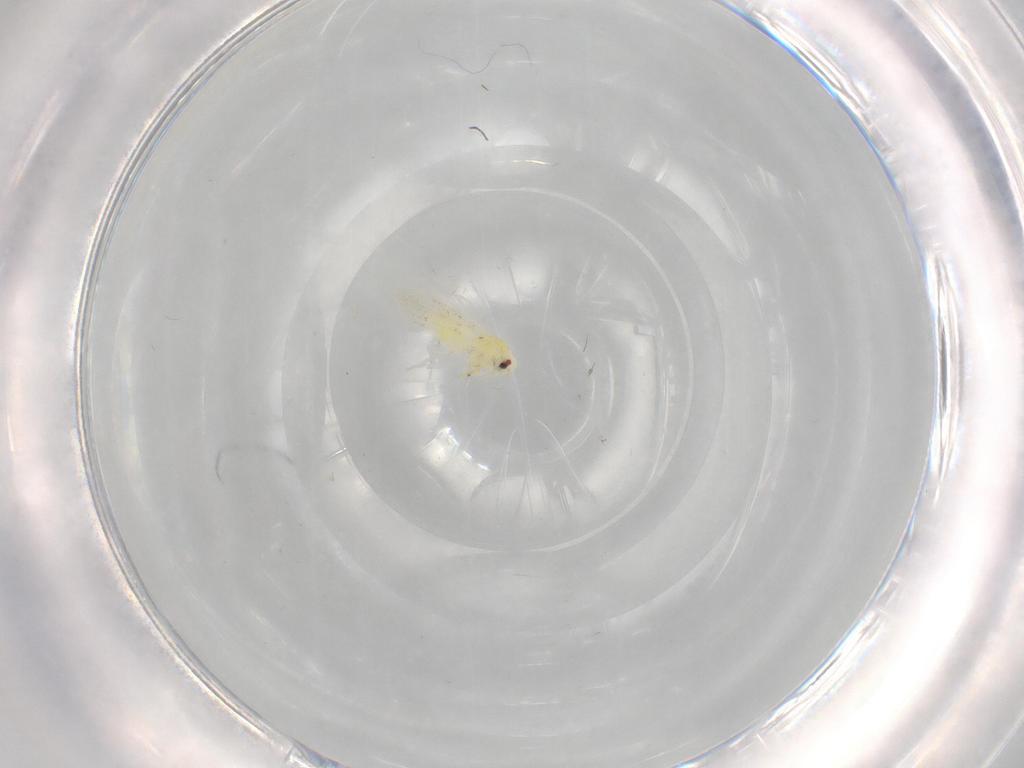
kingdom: Animalia
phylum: Arthropoda
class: Insecta
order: Hemiptera
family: Aleyrodidae
